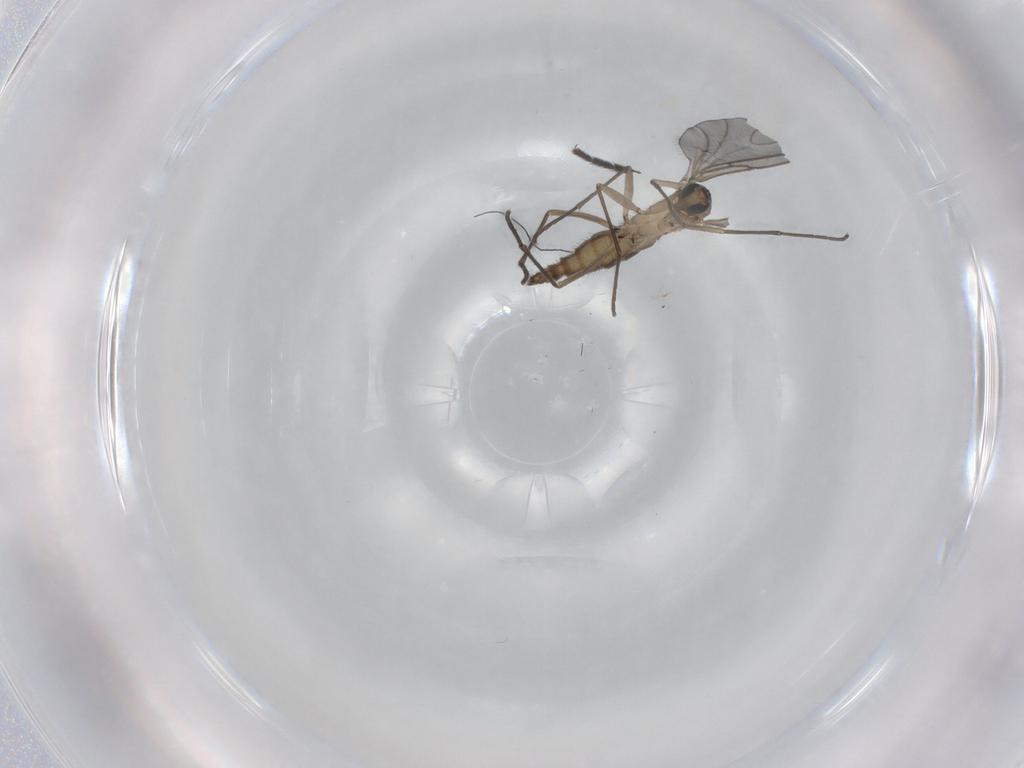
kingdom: Animalia
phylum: Arthropoda
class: Insecta
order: Diptera
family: Sciaridae
